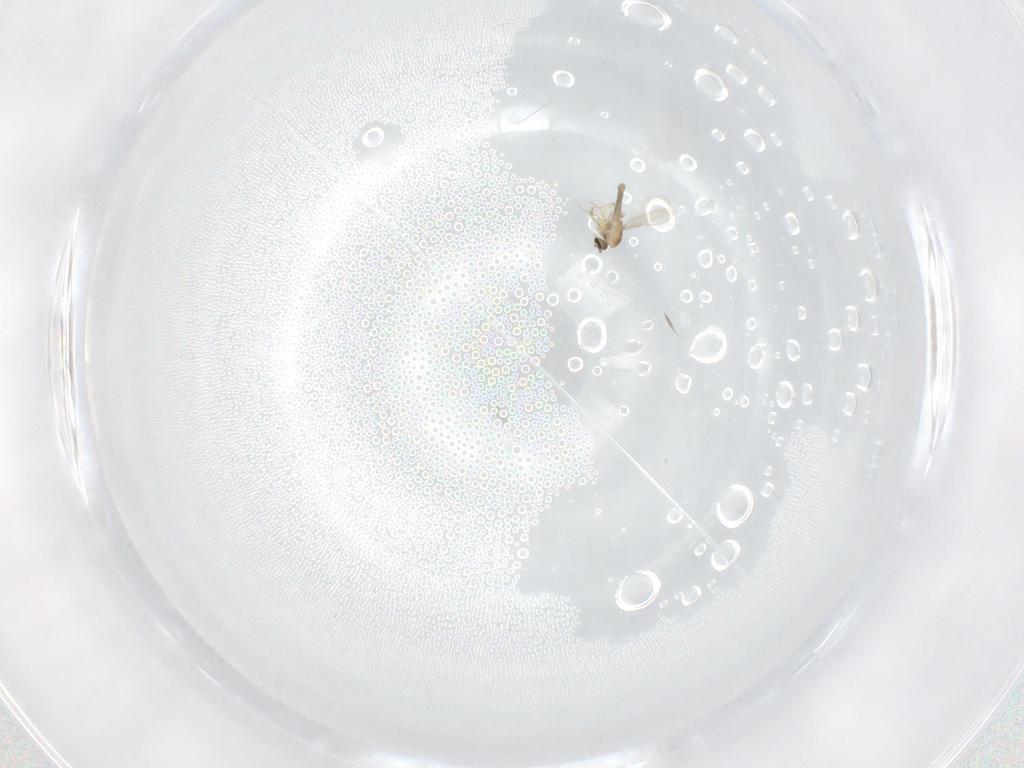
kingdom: Animalia
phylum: Arthropoda
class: Insecta
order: Diptera
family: Ceratopogonidae
